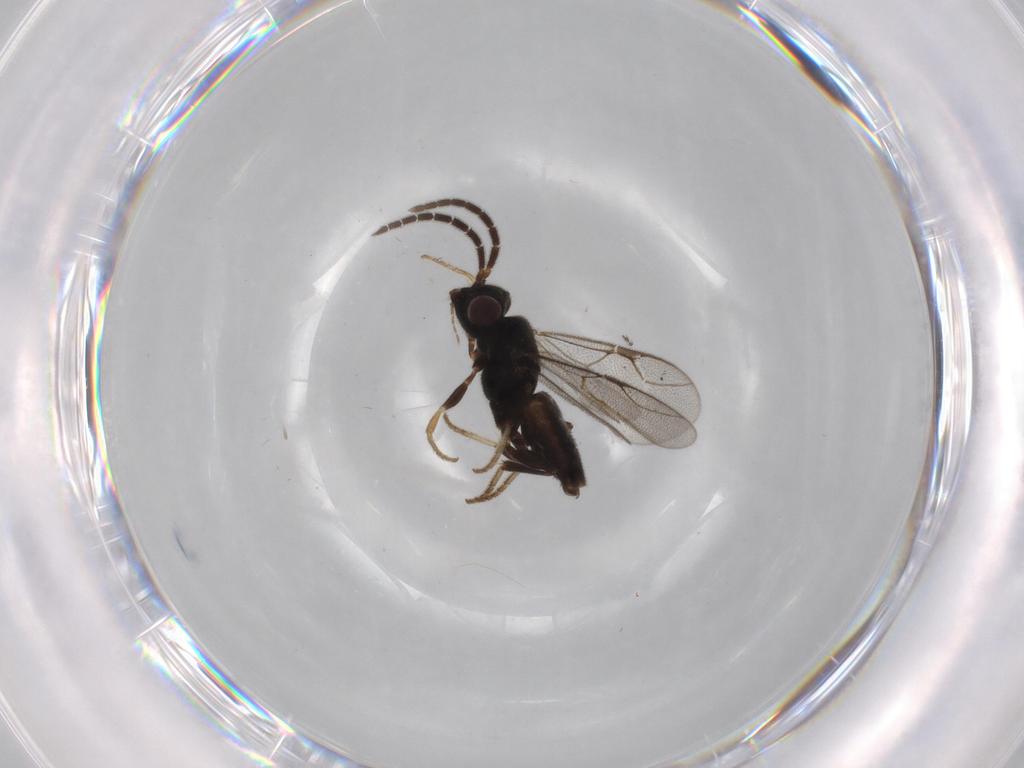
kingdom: Animalia
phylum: Arthropoda
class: Insecta
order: Hymenoptera
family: Dryinidae
